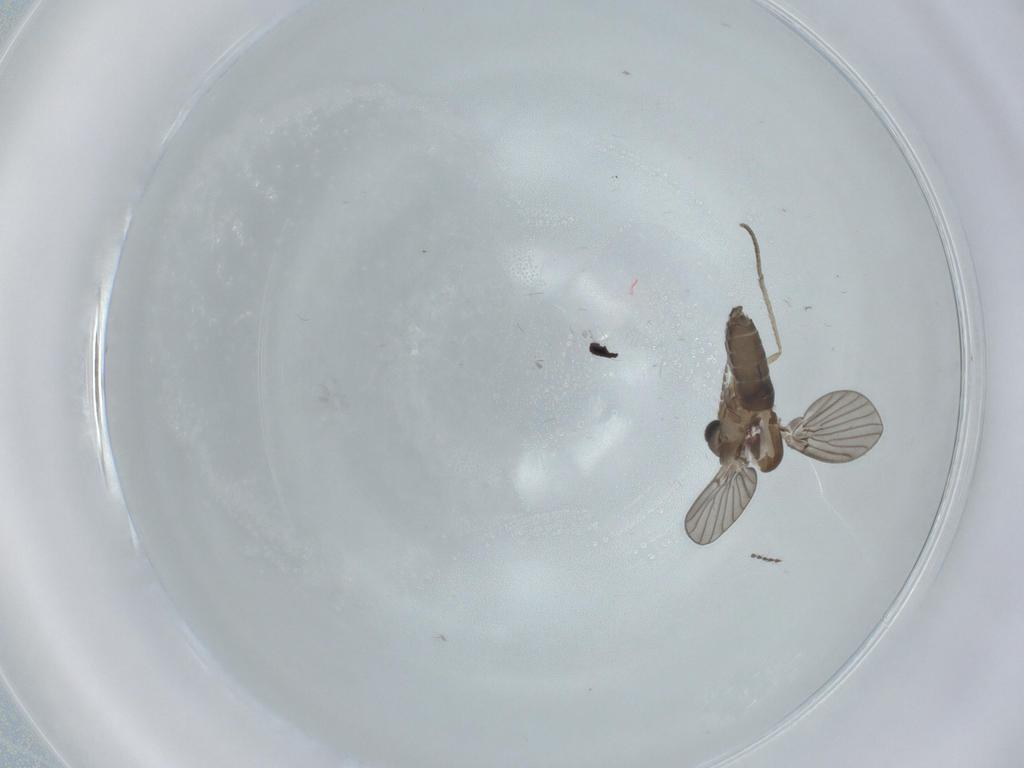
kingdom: Animalia
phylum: Arthropoda
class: Insecta
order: Diptera
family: Psychodidae
